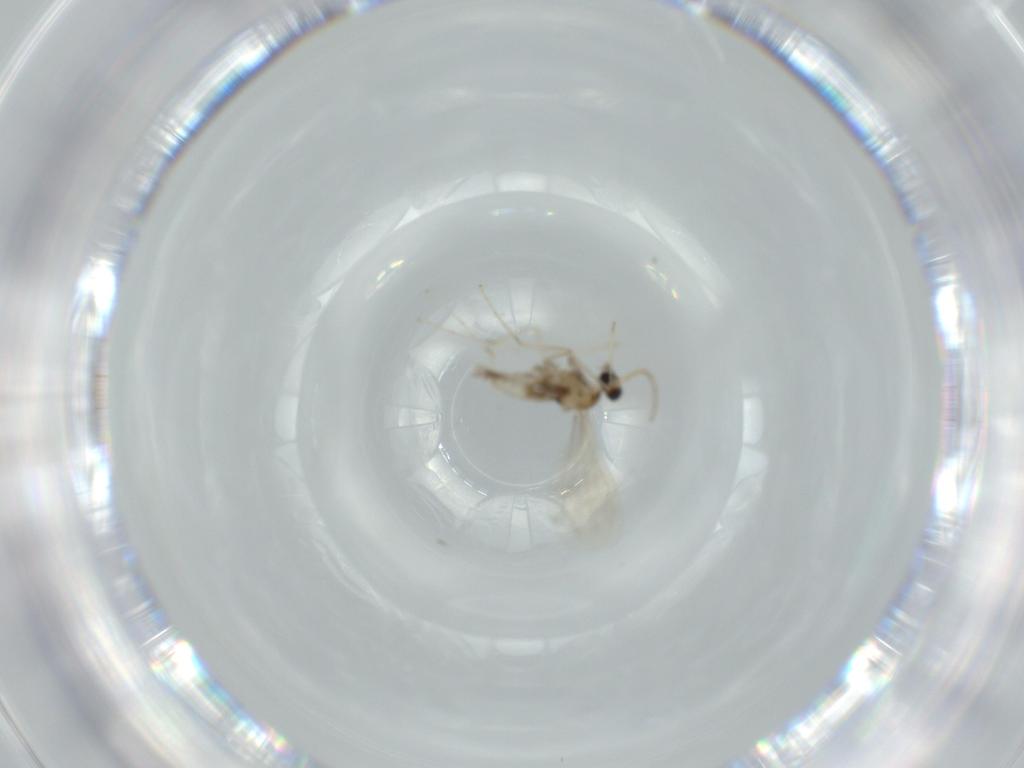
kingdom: Animalia
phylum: Arthropoda
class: Insecta
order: Diptera
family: Cecidomyiidae
